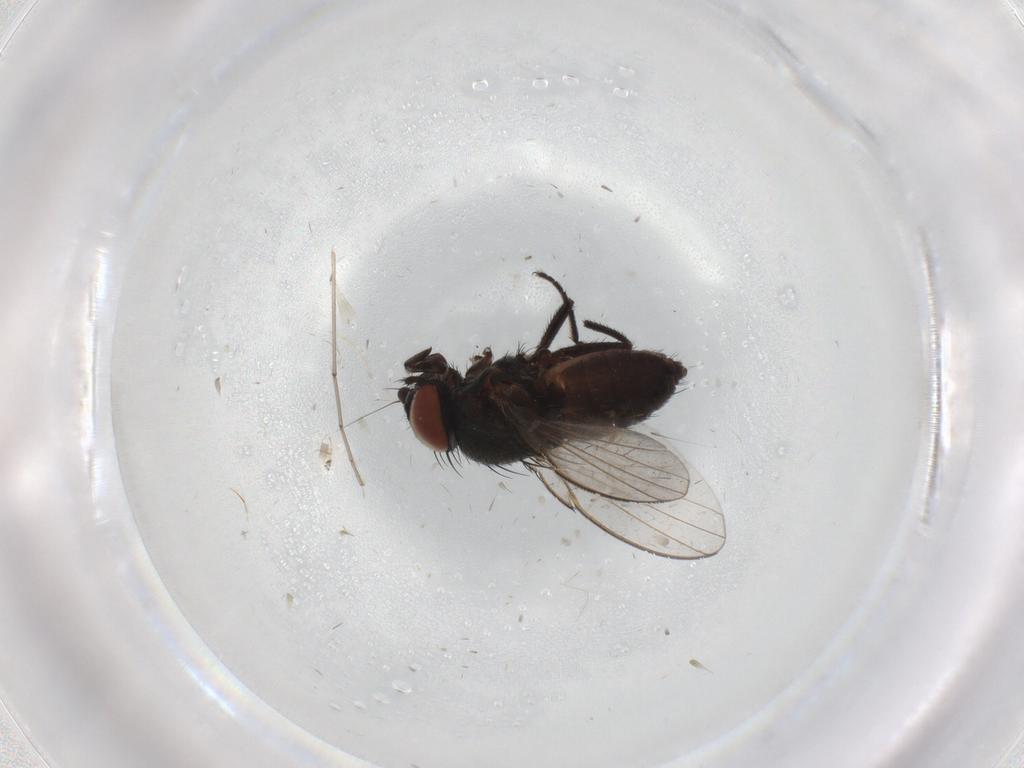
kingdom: Animalia
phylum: Arthropoda
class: Insecta
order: Diptera
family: Milichiidae
